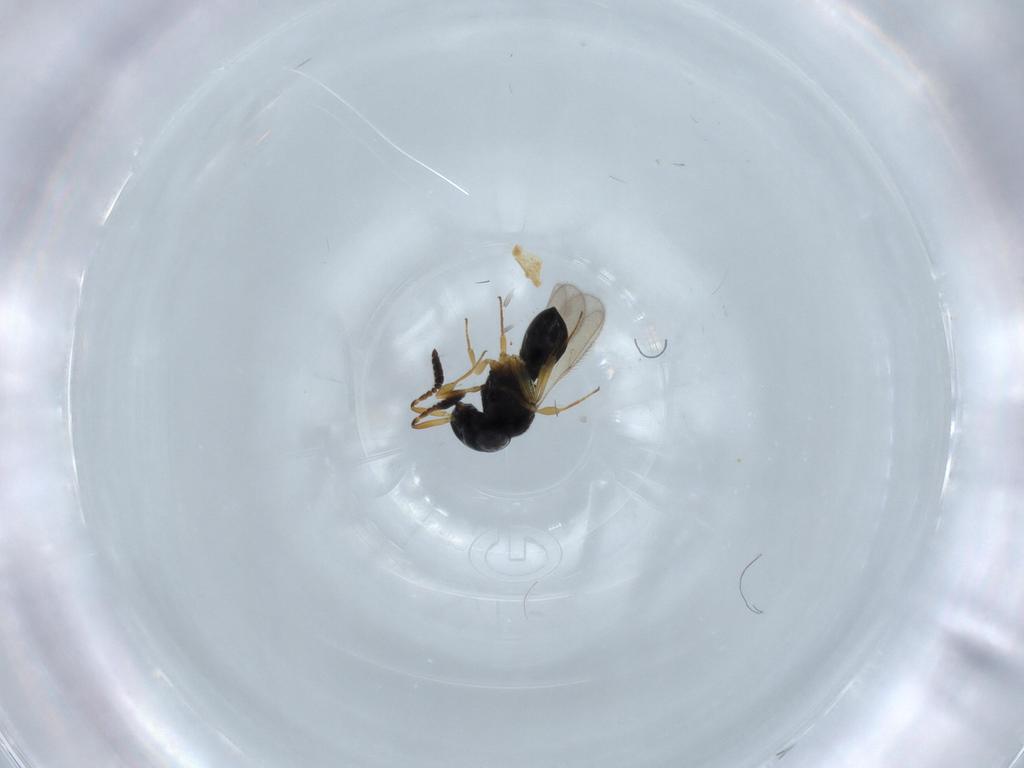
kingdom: Animalia
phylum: Arthropoda
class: Insecta
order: Hymenoptera
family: Scelionidae
